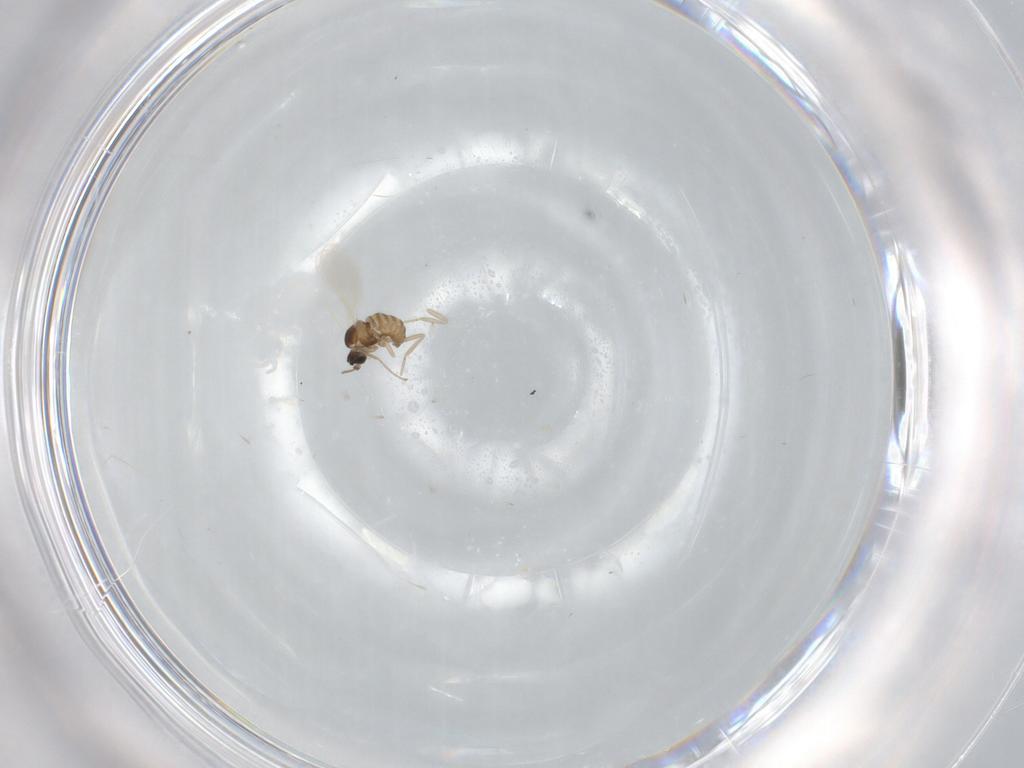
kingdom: Animalia
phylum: Arthropoda
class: Insecta
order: Diptera
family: Cecidomyiidae
